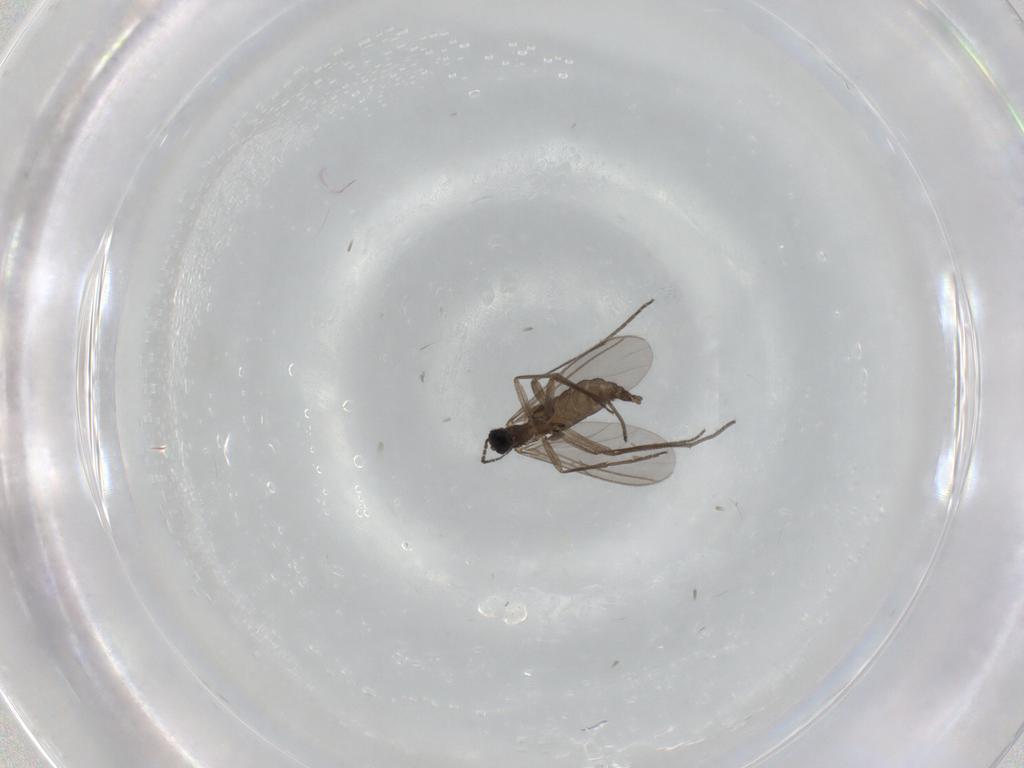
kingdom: Animalia
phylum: Arthropoda
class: Insecta
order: Diptera
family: Sciaridae
